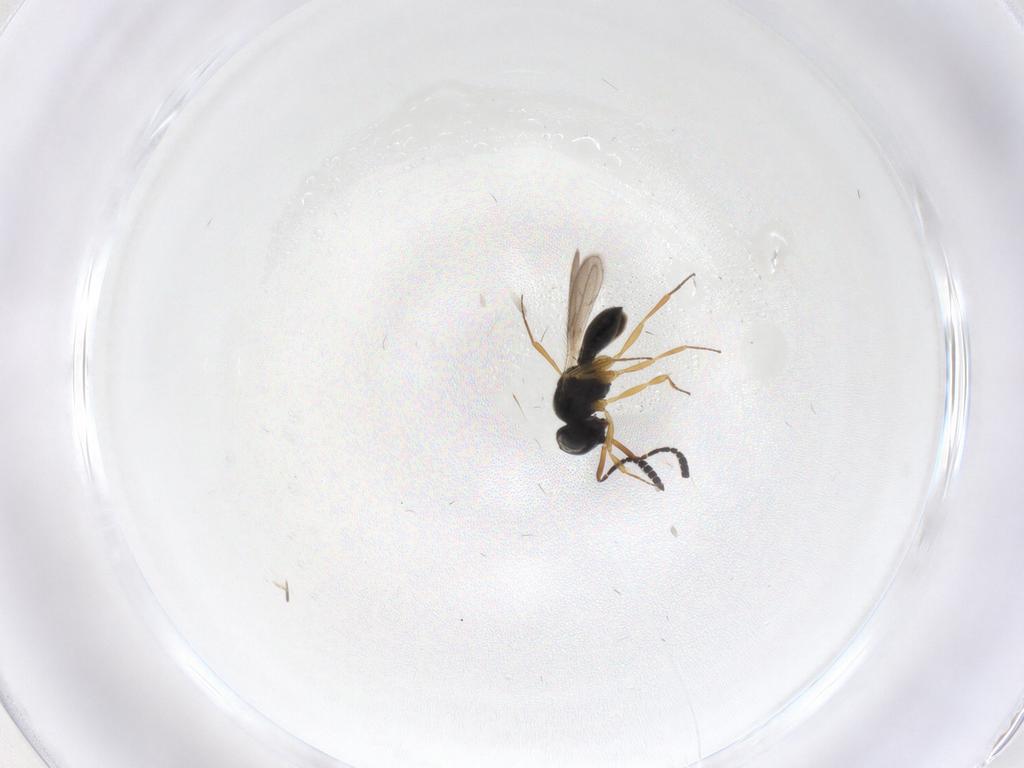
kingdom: Animalia
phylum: Arthropoda
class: Insecta
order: Hymenoptera
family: Scelionidae
